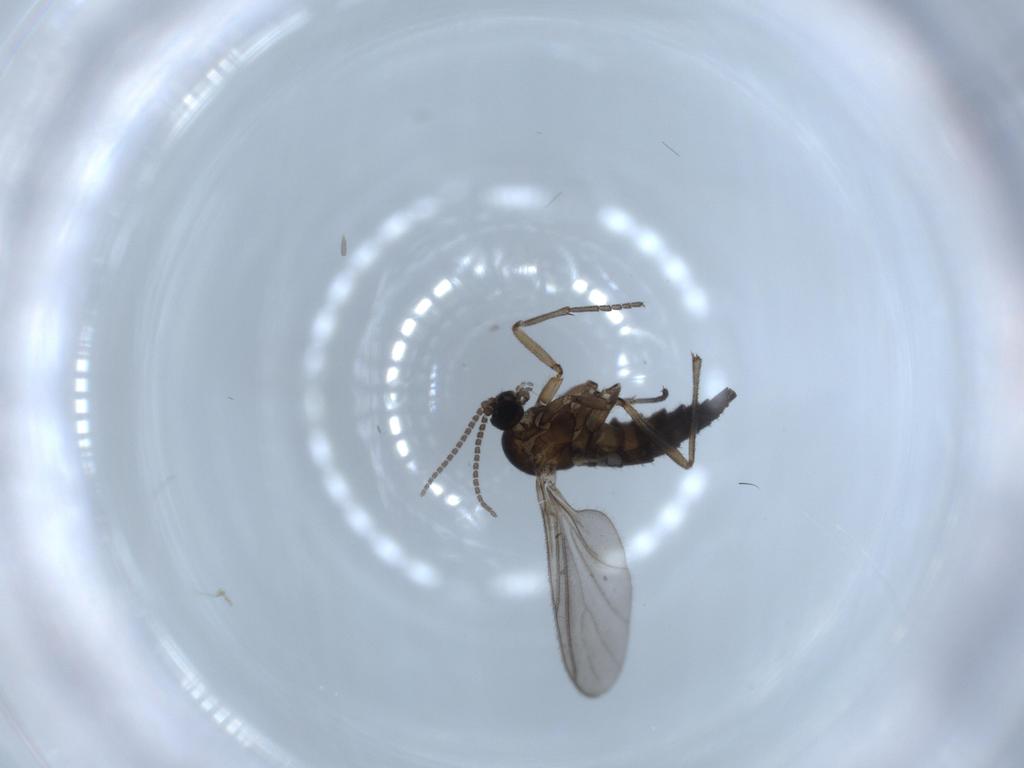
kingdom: Animalia
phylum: Arthropoda
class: Insecta
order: Diptera
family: Sciaridae
